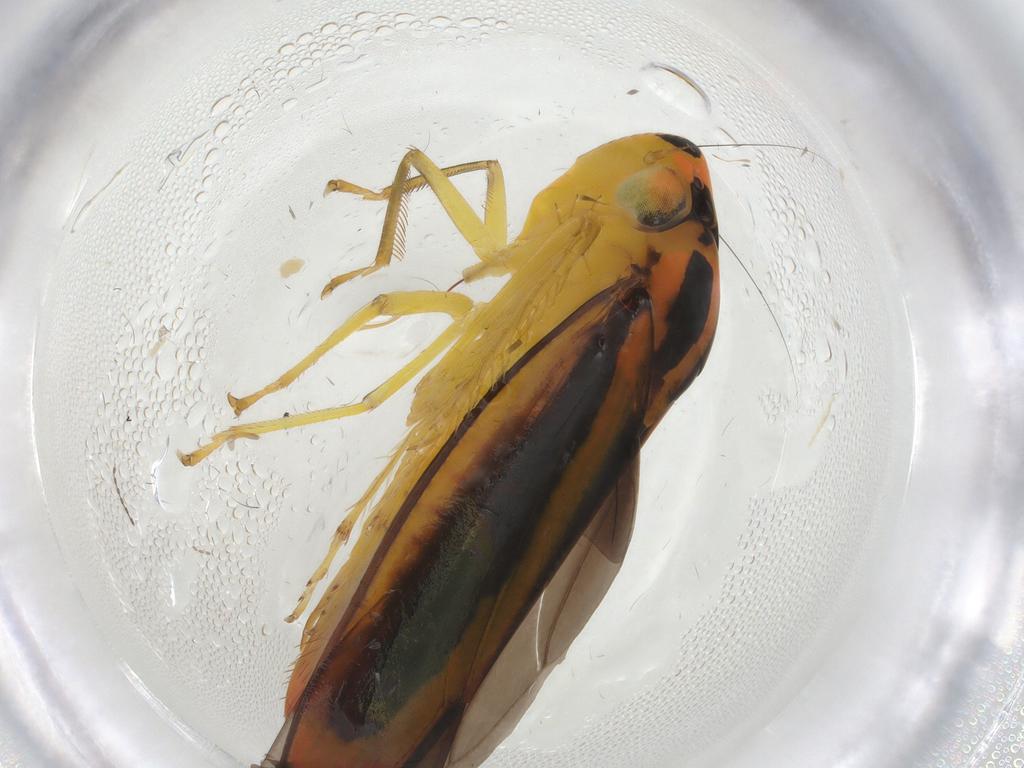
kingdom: Animalia
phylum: Arthropoda
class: Insecta
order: Hemiptera
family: Cicadellidae
